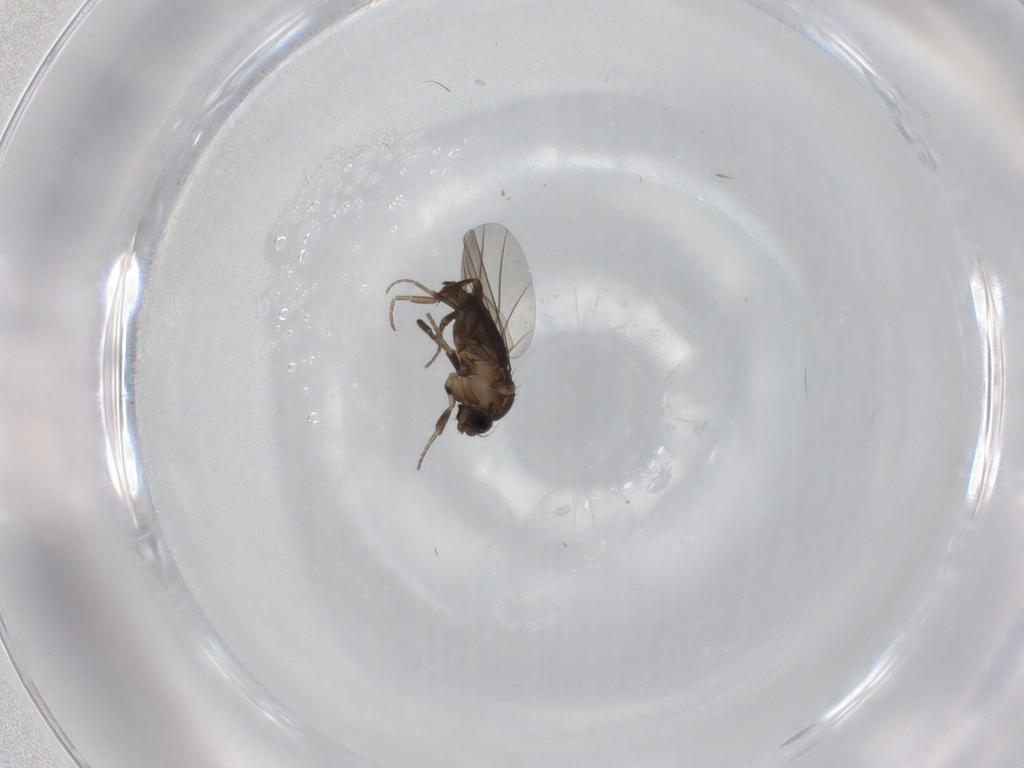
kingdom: Animalia
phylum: Arthropoda
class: Insecta
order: Diptera
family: Phoridae
